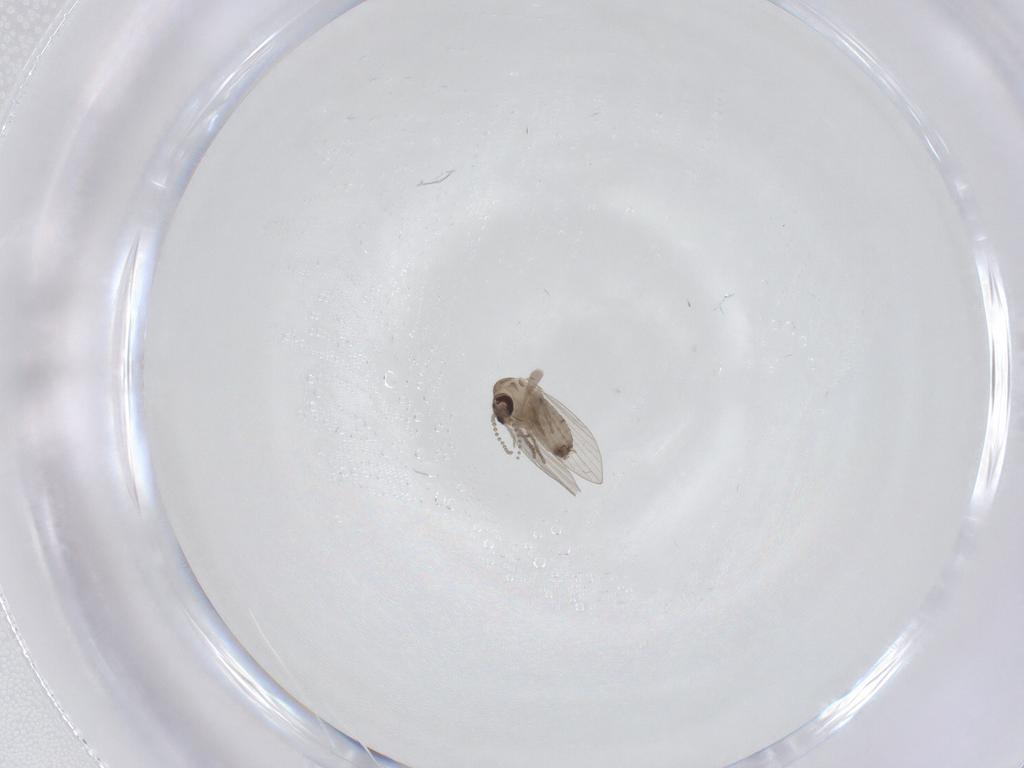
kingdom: Animalia
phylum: Arthropoda
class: Insecta
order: Diptera
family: Psychodidae
